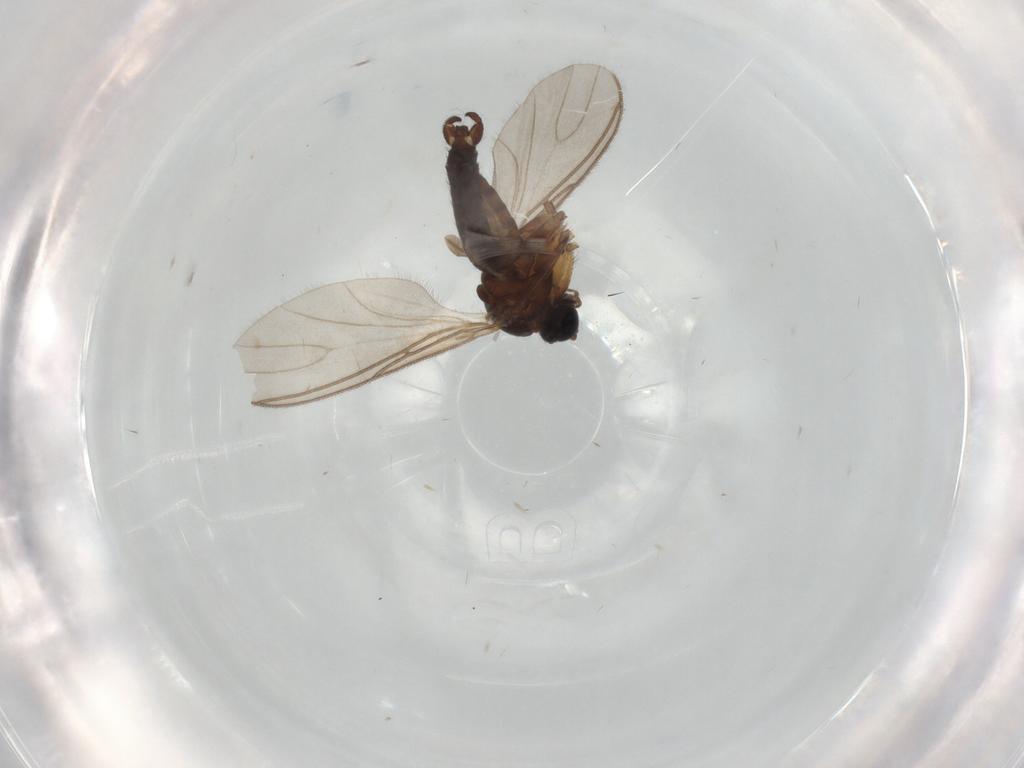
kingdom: Animalia
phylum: Arthropoda
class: Insecta
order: Diptera
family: Sciaridae
